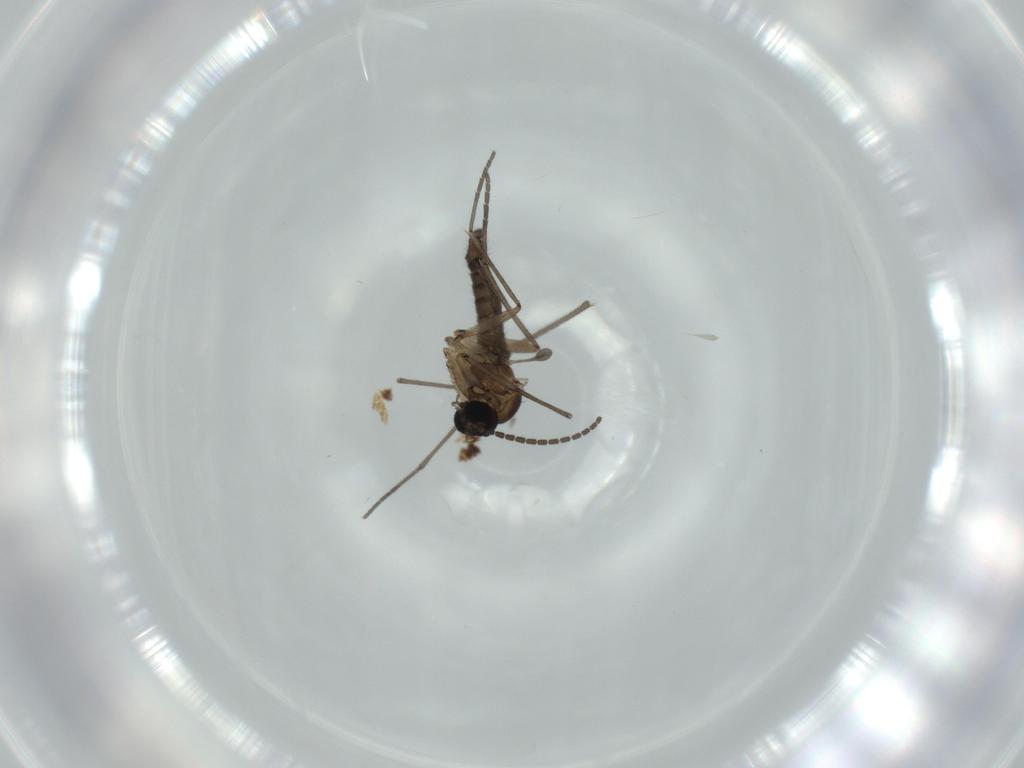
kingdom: Animalia
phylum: Arthropoda
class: Insecta
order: Diptera
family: Sciaridae
